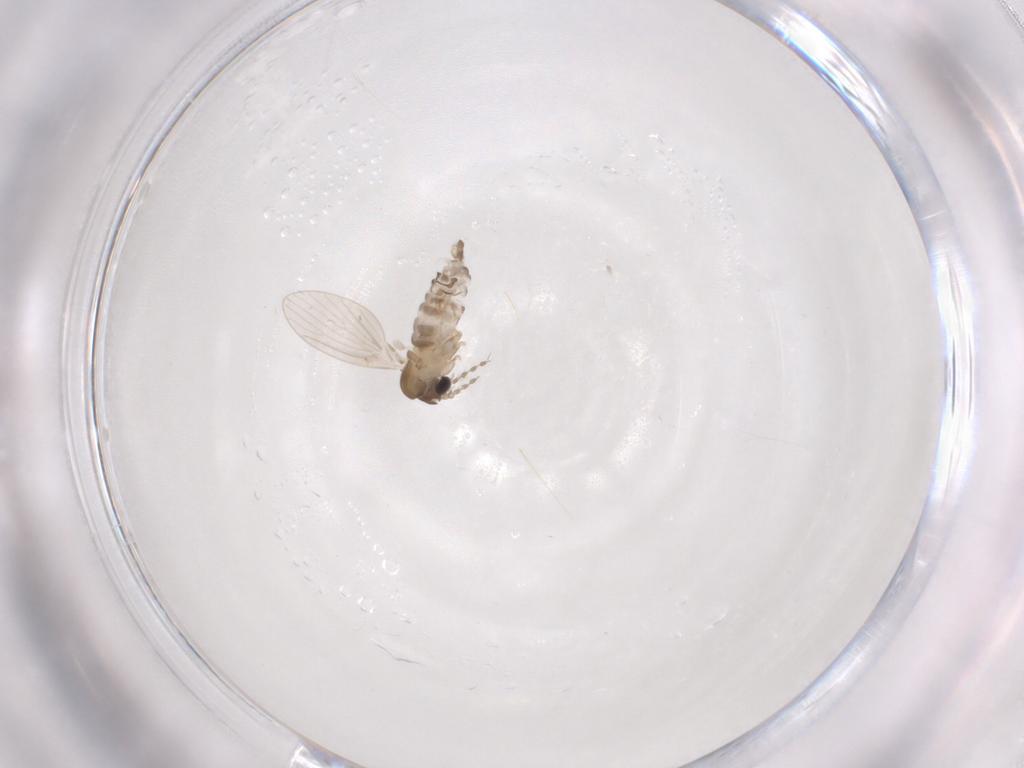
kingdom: Animalia
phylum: Arthropoda
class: Insecta
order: Diptera
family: Psychodidae
